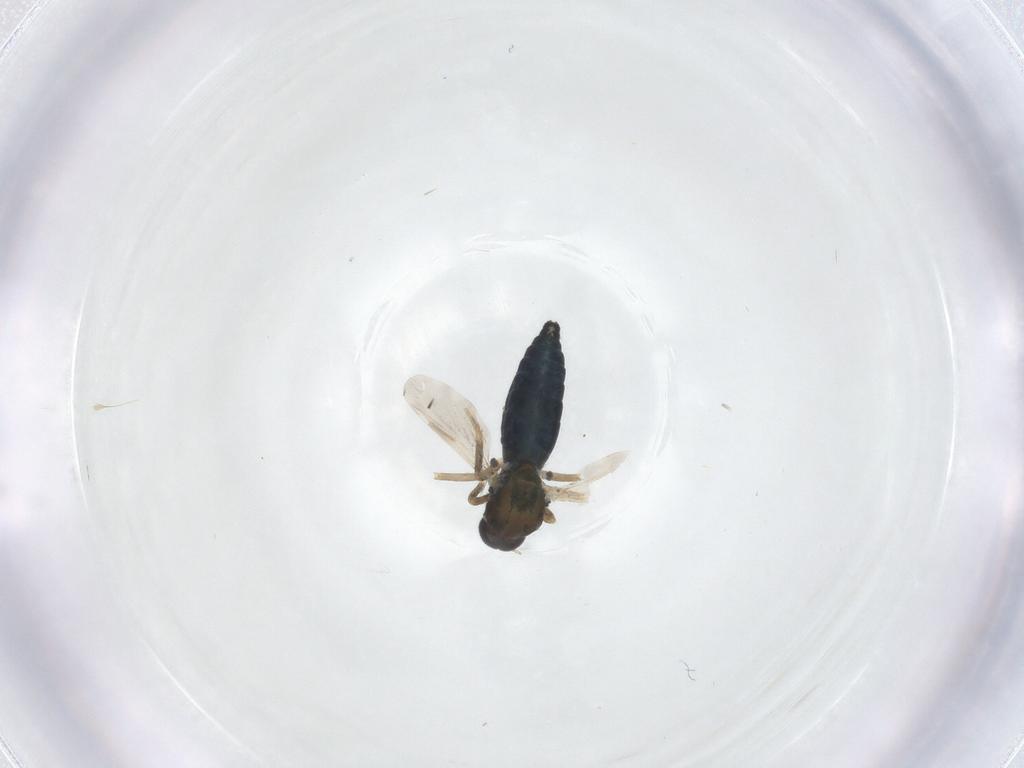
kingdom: Animalia
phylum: Arthropoda
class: Insecta
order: Diptera
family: Ceratopogonidae
